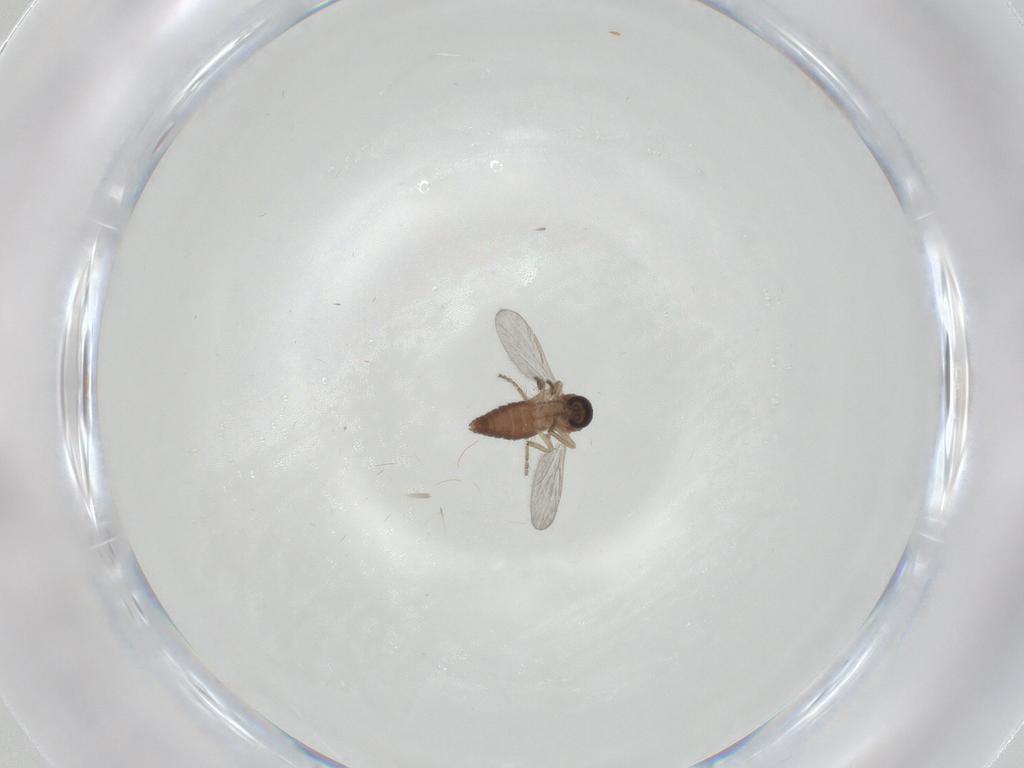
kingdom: Animalia
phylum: Arthropoda
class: Insecta
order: Diptera
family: Ceratopogonidae
